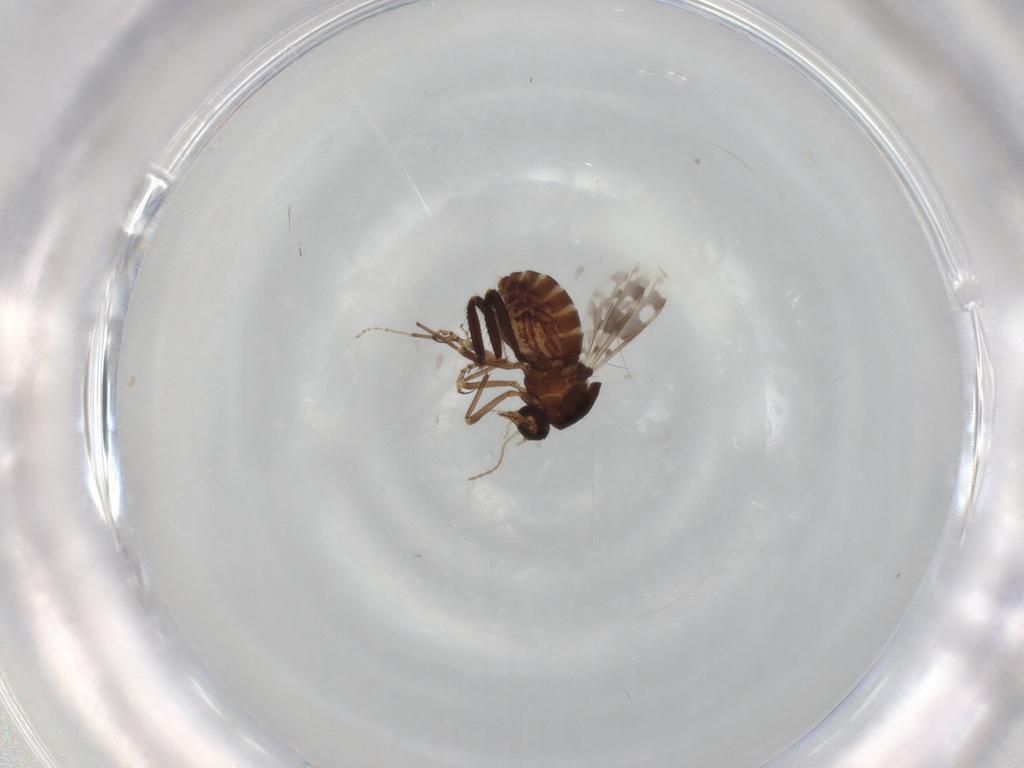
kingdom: Animalia
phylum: Arthropoda
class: Insecta
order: Diptera
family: Ceratopogonidae
